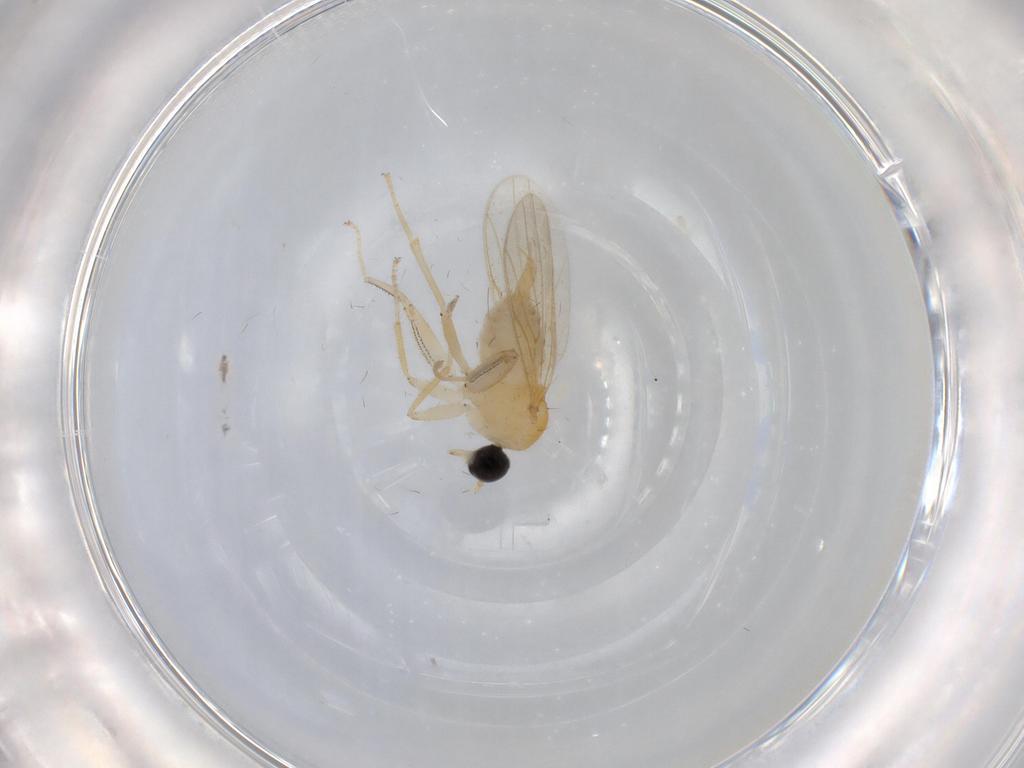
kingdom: Animalia
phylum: Arthropoda
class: Insecta
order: Diptera
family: Hybotidae
